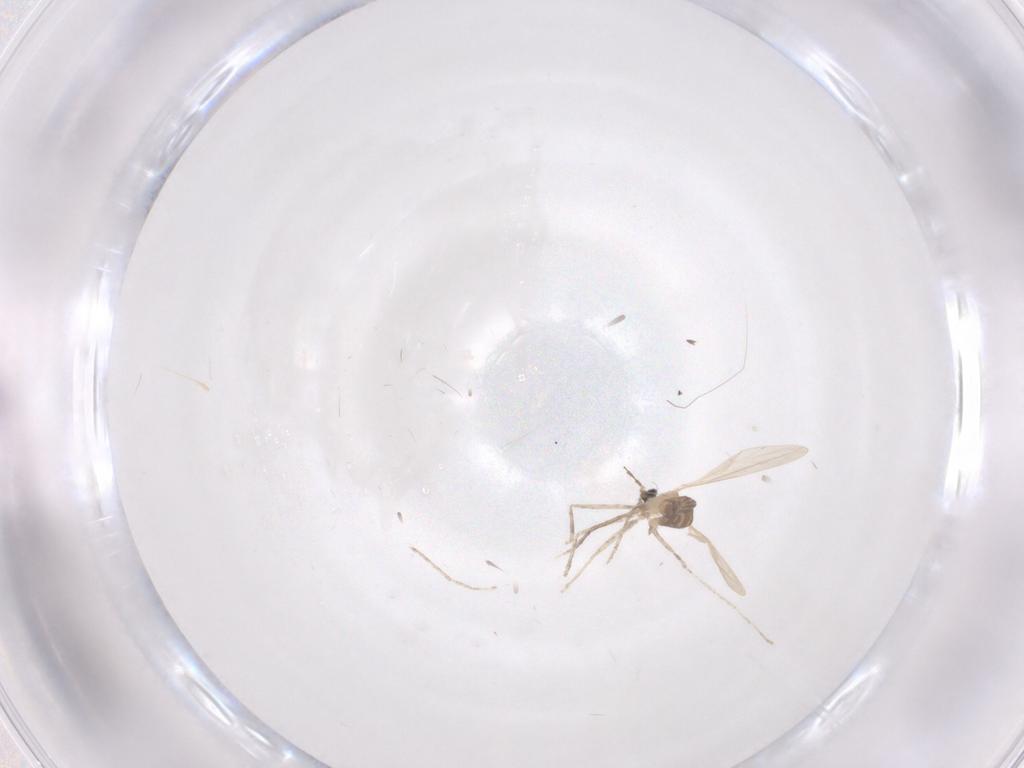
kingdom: Animalia
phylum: Arthropoda
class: Insecta
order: Diptera
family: Cecidomyiidae
